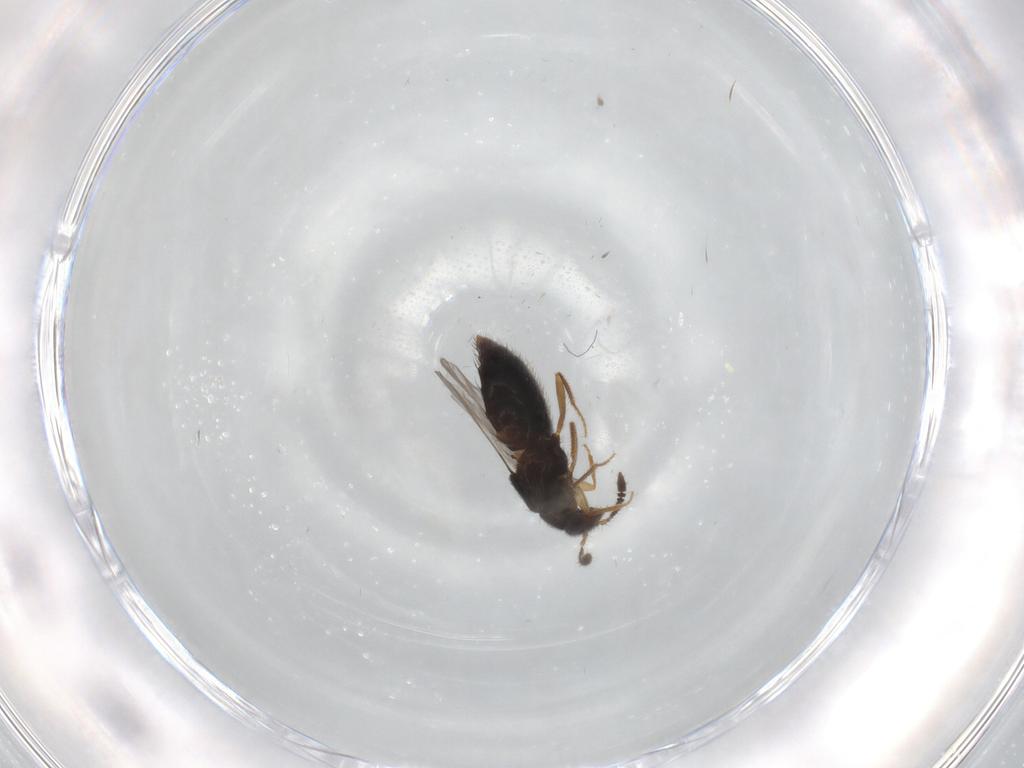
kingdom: Animalia
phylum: Arthropoda
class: Insecta
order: Coleoptera
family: Staphylinidae
